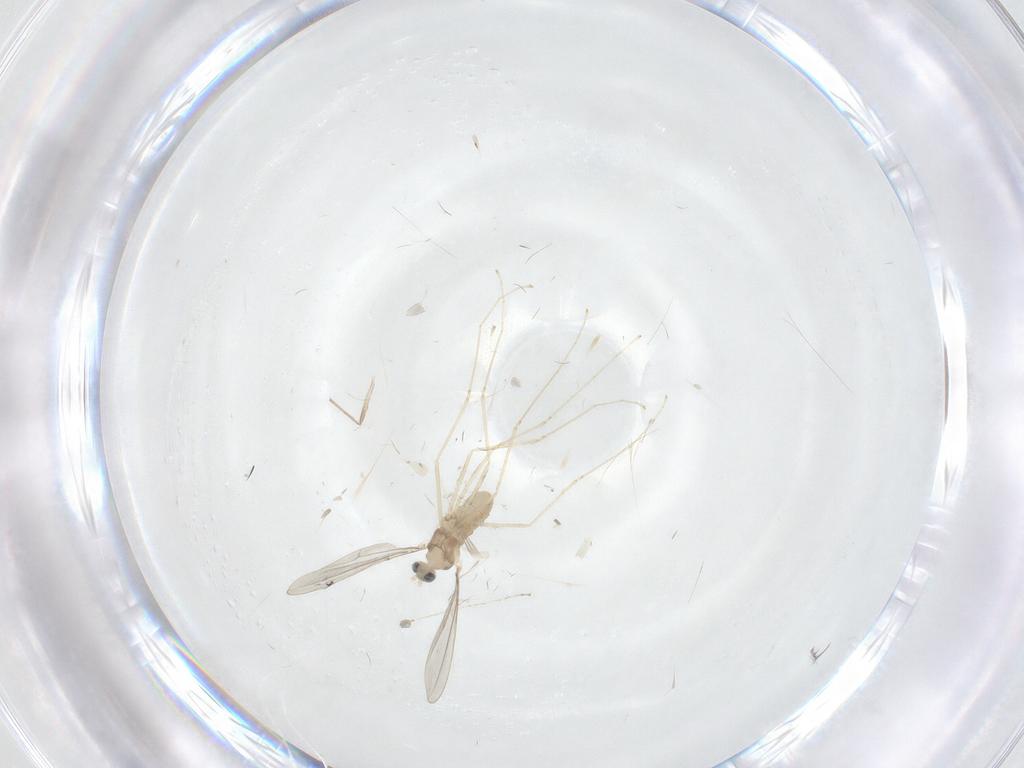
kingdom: Animalia
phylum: Arthropoda
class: Insecta
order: Diptera
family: Cecidomyiidae
